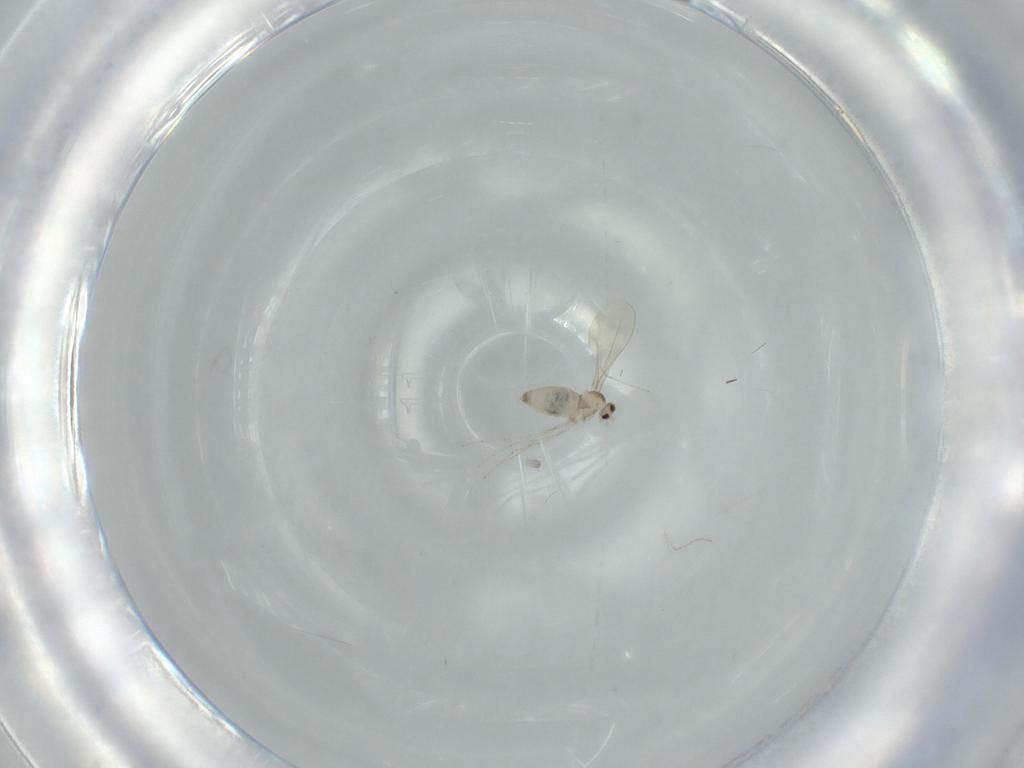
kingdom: Animalia
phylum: Arthropoda
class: Insecta
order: Diptera
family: Cecidomyiidae
